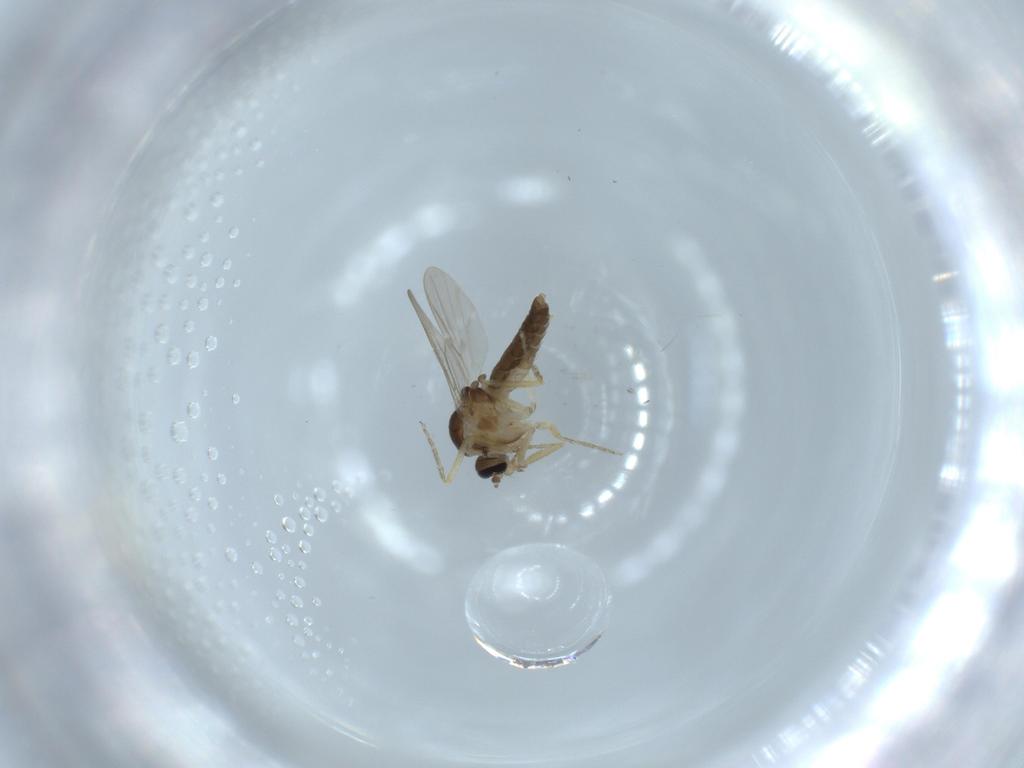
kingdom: Animalia
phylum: Arthropoda
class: Insecta
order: Diptera
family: Ceratopogonidae
